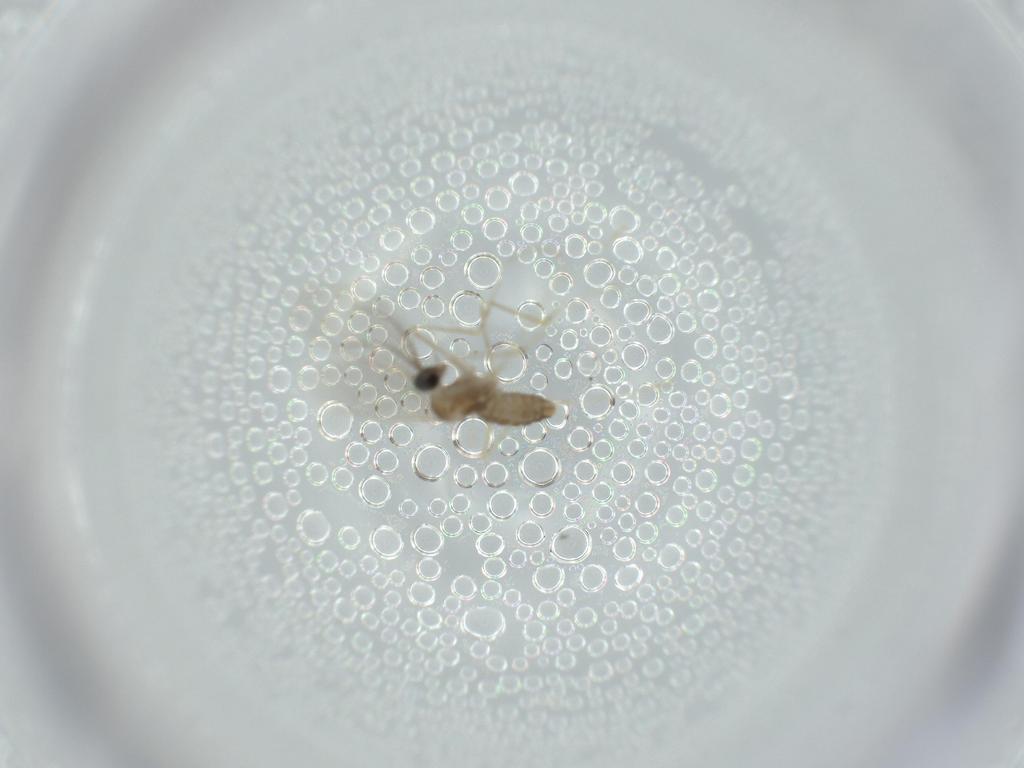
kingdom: Animalia
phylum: Arthropoda
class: Insecta
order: Diptera
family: Cecidomyiidae
